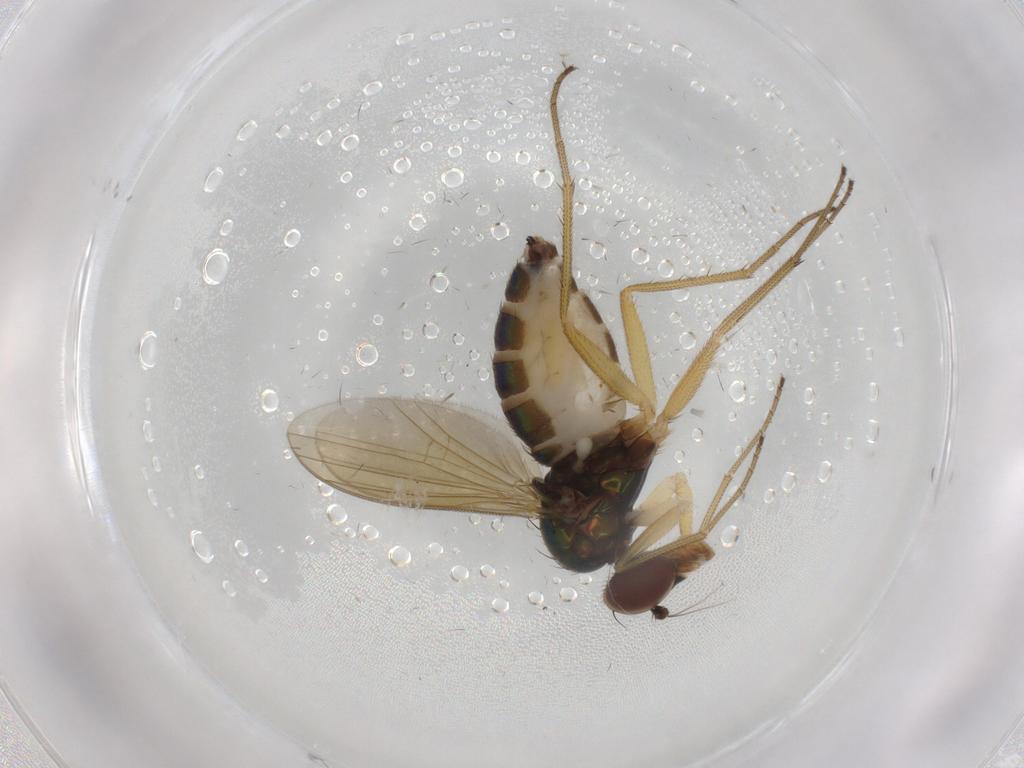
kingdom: Animalia
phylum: Arthropoda
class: Insecta
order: Diptera
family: Dolichopodidae
